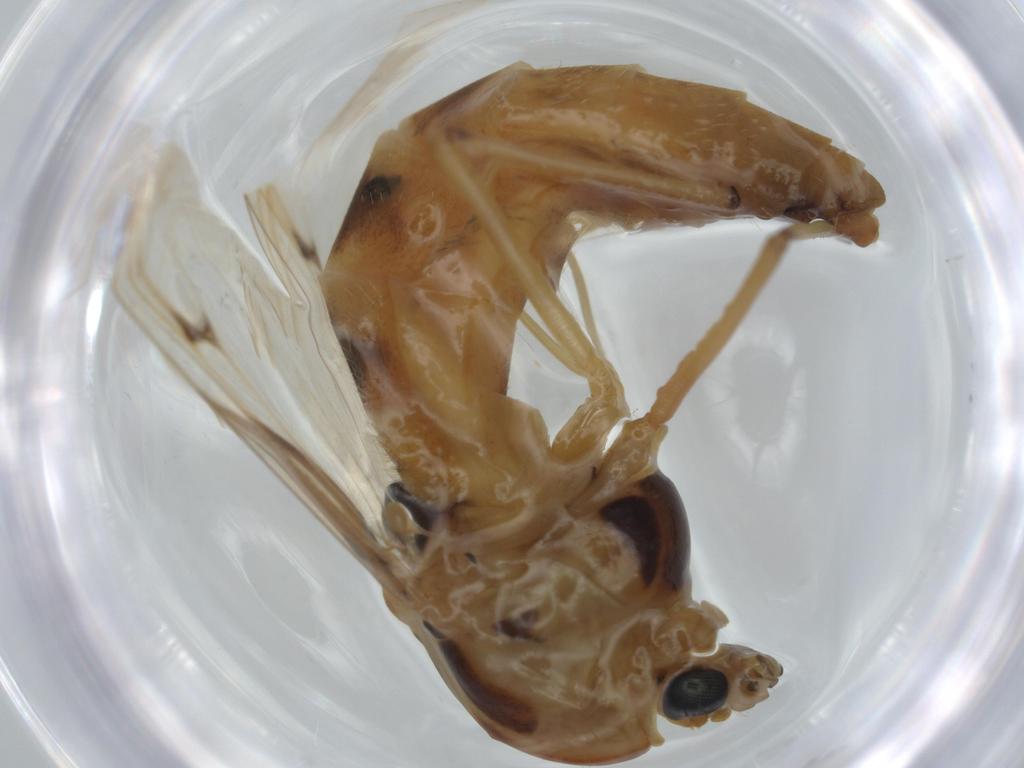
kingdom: Animalia
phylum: Arthropoda
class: Insecta
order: Diptera
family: Chironomidae
